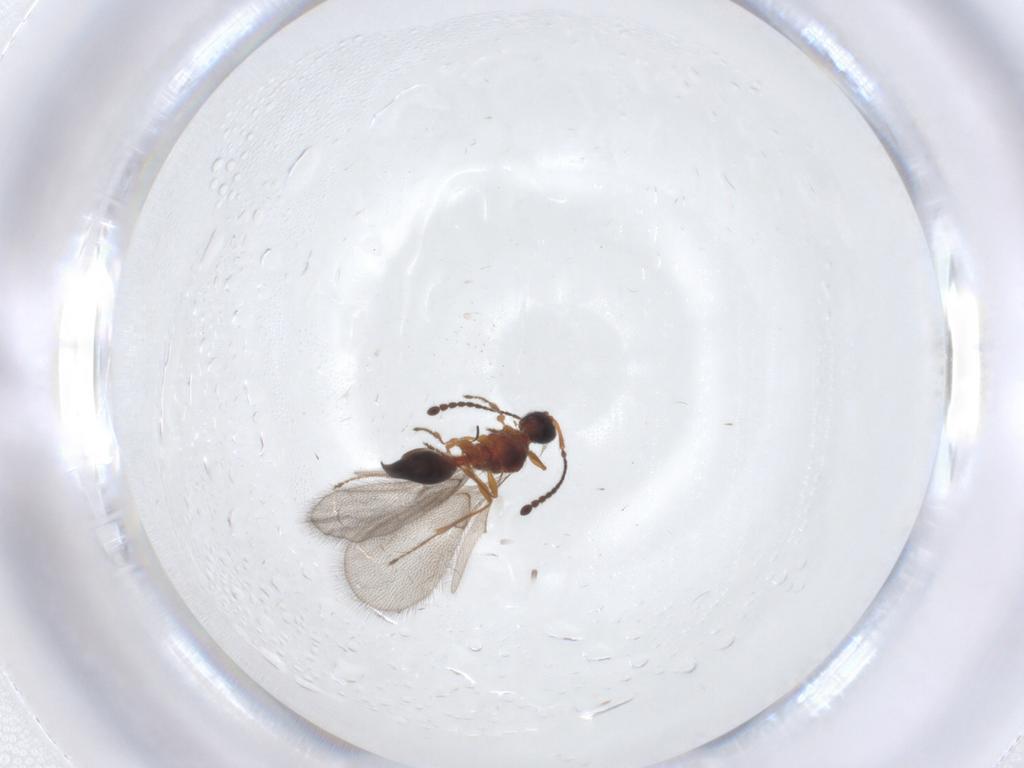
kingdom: Animalia
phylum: Arthropoda
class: Insecta
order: Hymenoptera
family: Diapriidae
